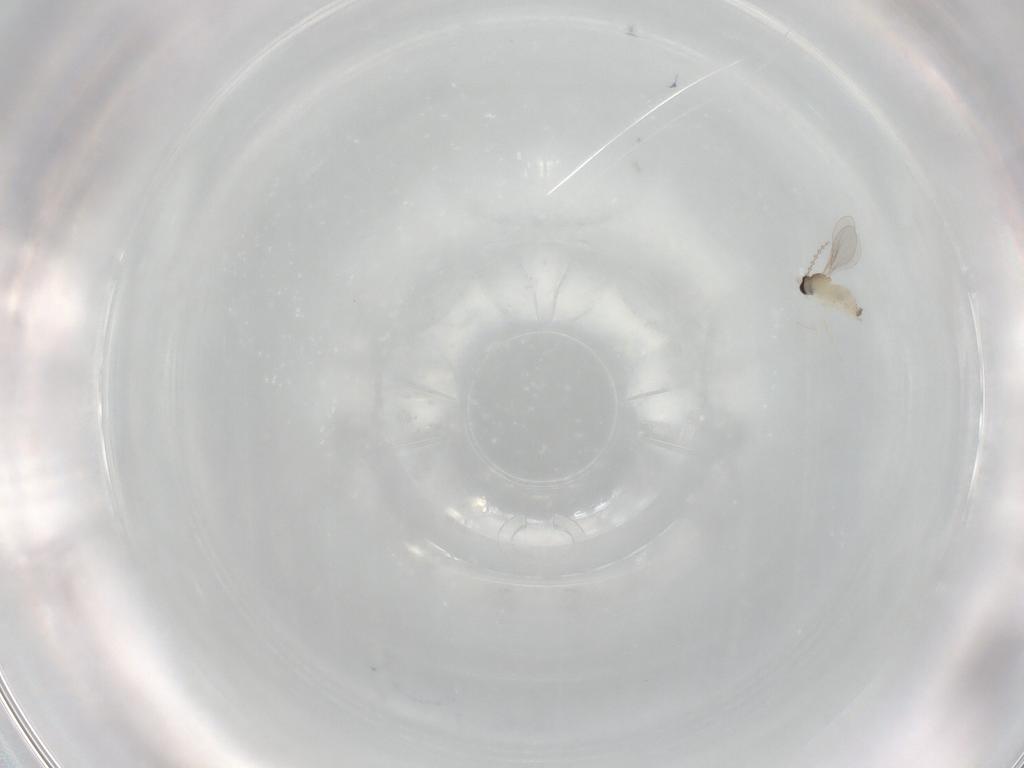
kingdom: Animalia
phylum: Arthropoda
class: Insecta
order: Diptera
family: Cecidomyiidae
